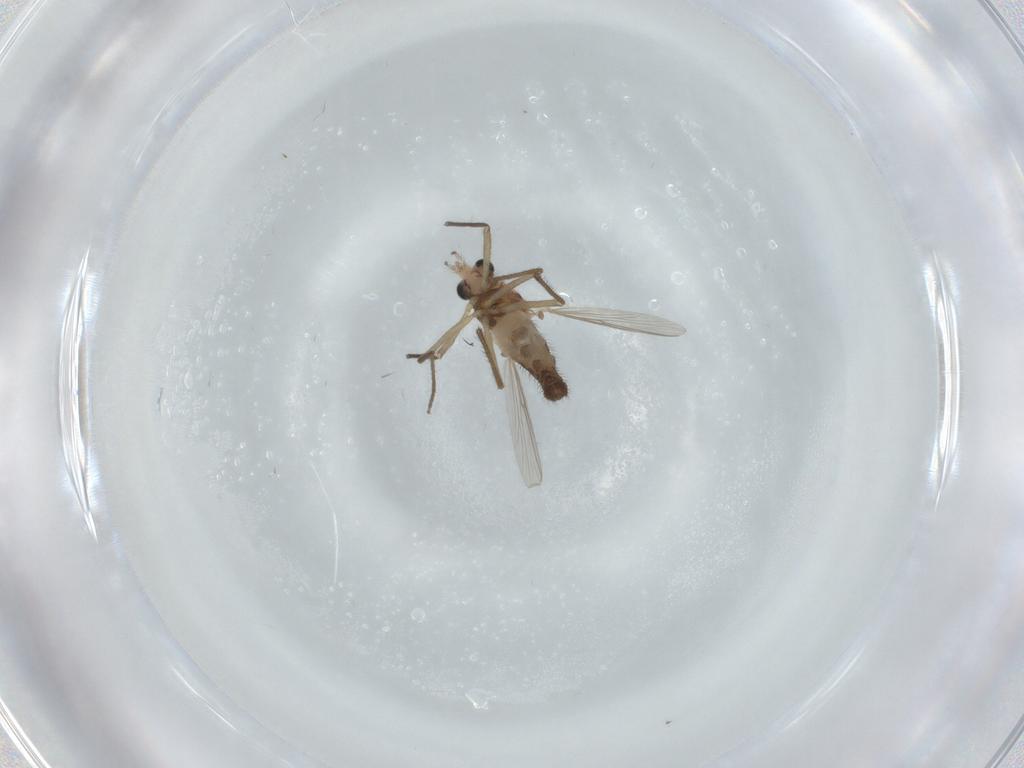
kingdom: Animalia
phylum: Arthropoda
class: Insecta
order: Diptera
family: Chironomidae
